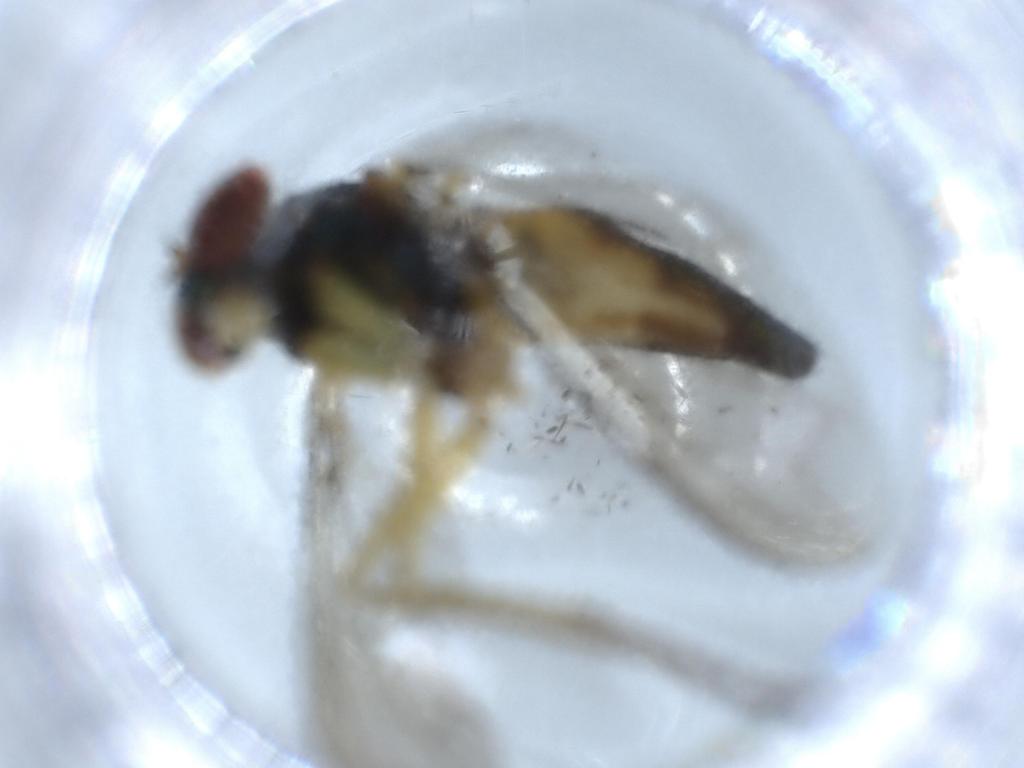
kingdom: Animalia
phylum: Arthropoda
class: Insecta
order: Diptera
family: Dolichopodidae
